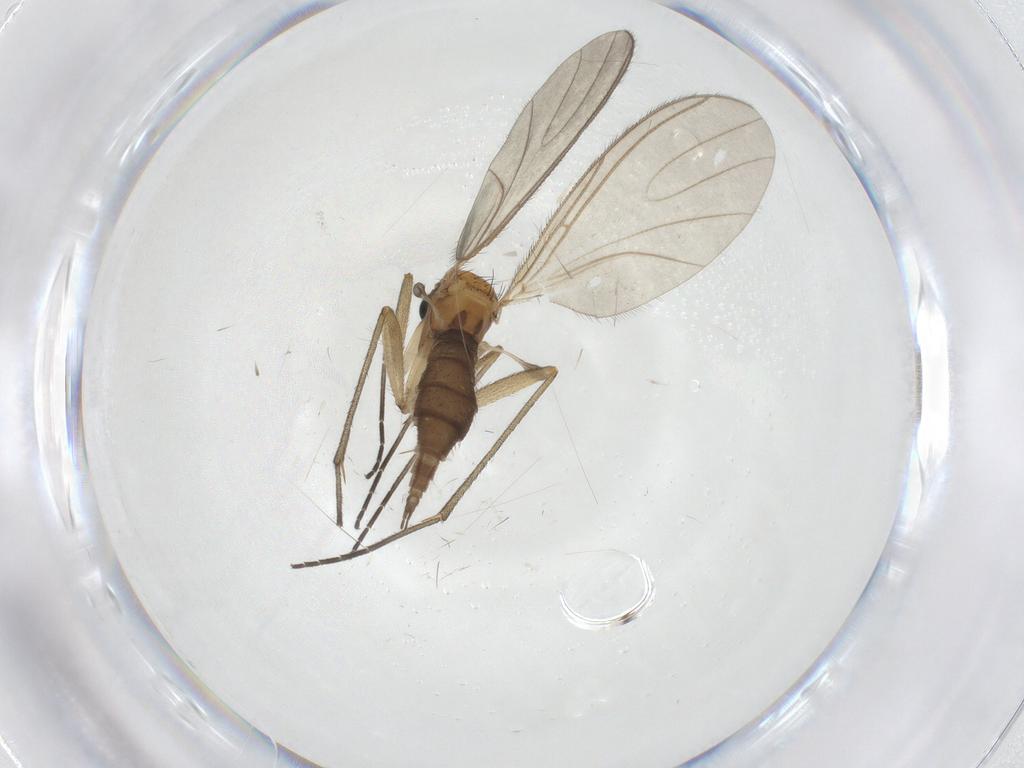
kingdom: Animalia
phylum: Arthropoda
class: Insecta
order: Diptera
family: Sciaridae
